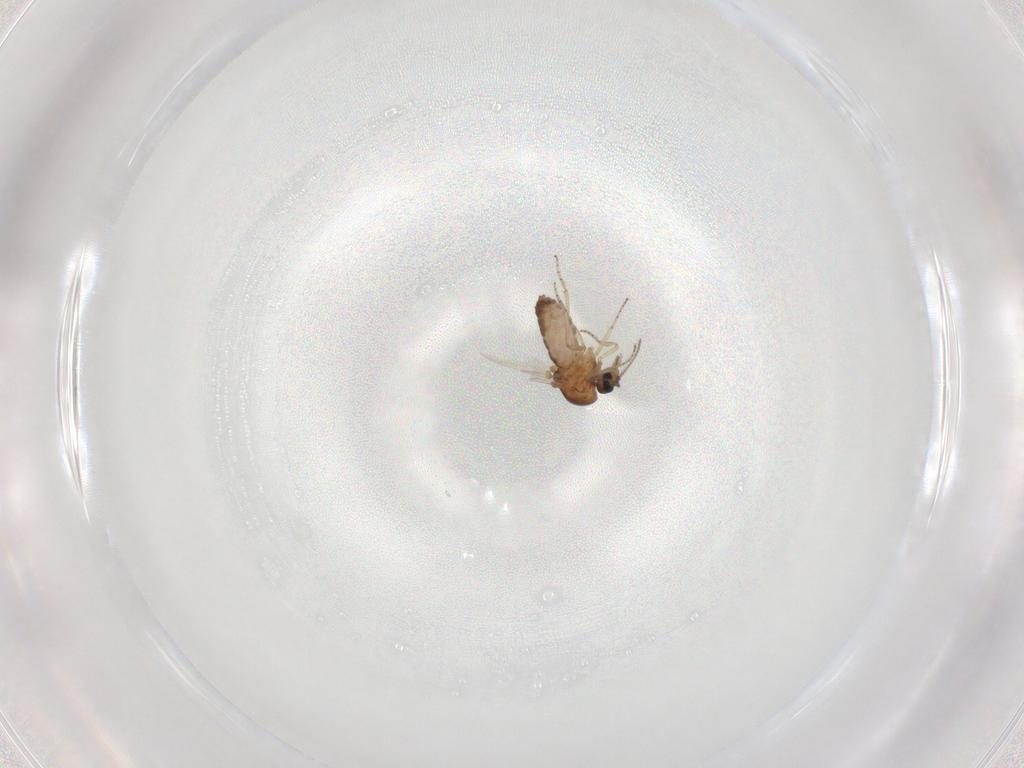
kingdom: Animalia
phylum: Arthropoda
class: Insecta
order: Diptera
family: Ceratopogonidae
